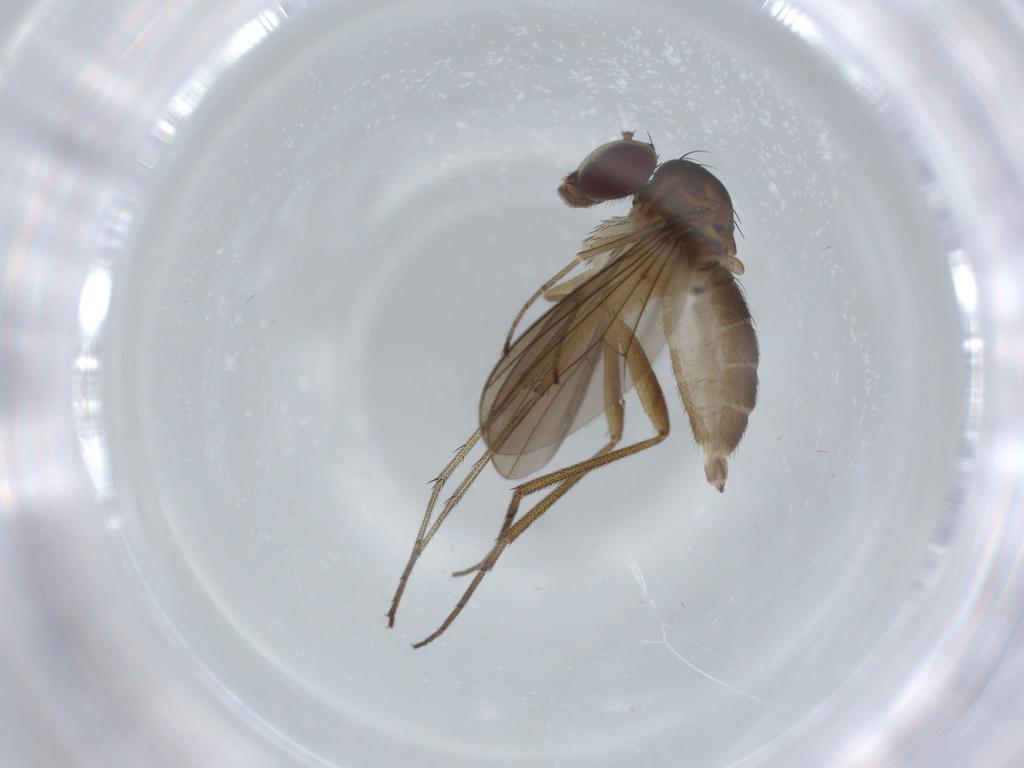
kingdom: Animalia
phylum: Arthropoda
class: Insecta
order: Diptera
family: Dolichopodidae
